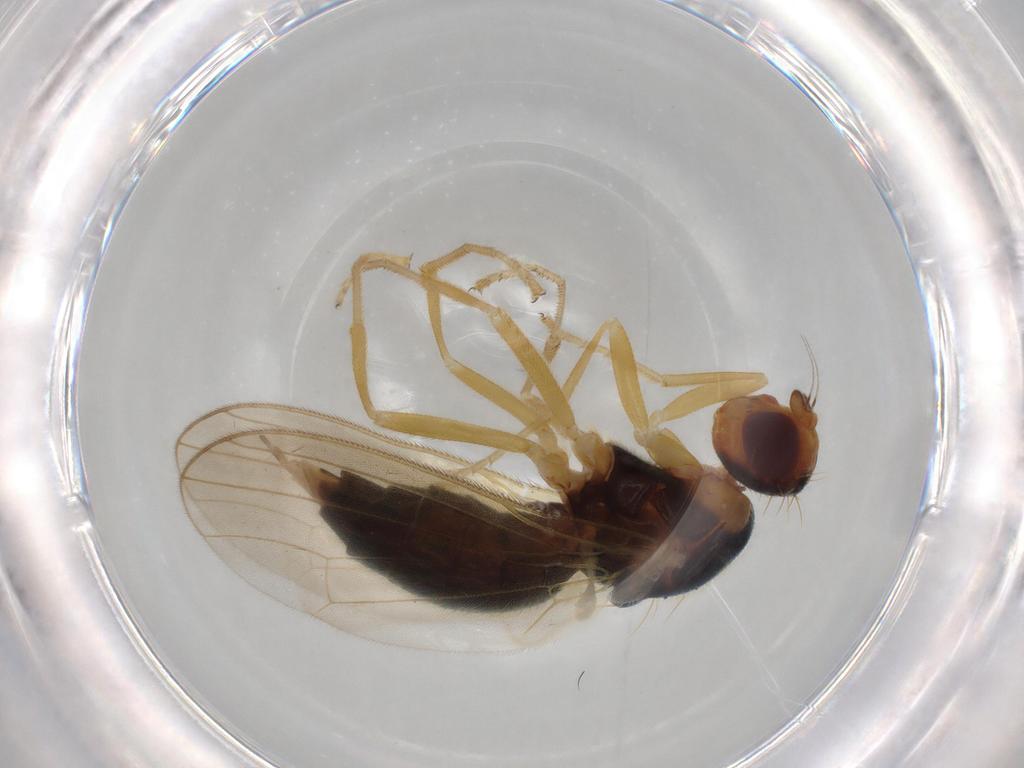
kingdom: Animalia
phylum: Arthropoda
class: Insecta
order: Diptera
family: Psilidae
